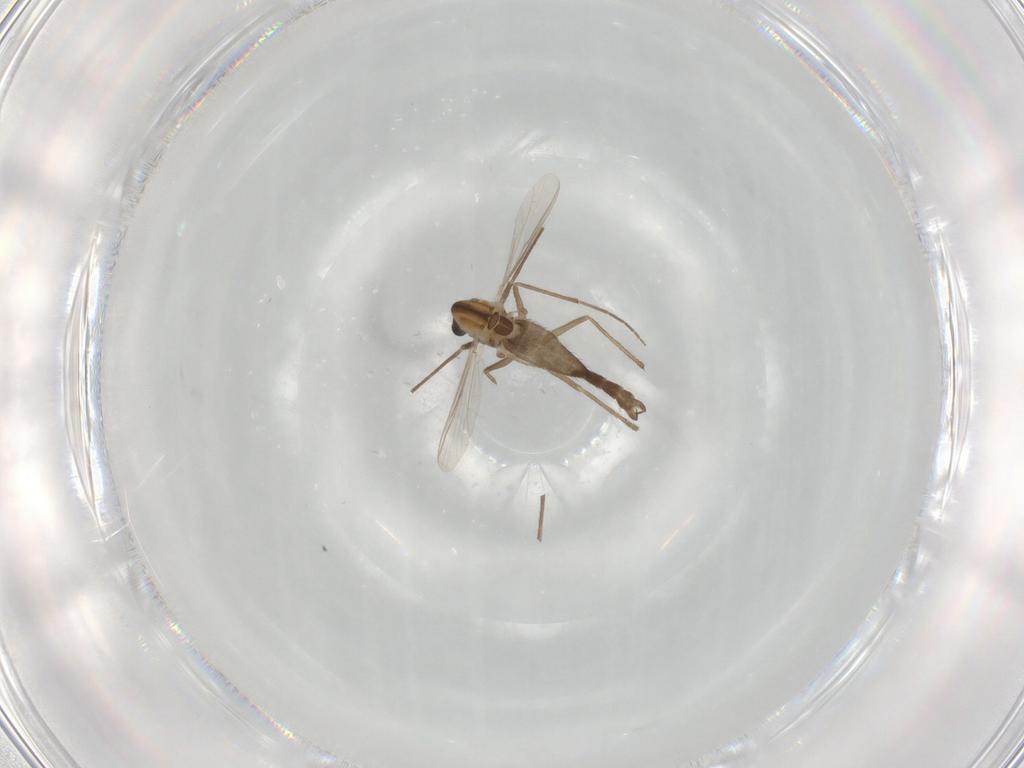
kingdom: Animalia
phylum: Arthropoda
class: Insecta
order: Diptera
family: Chironomidae
